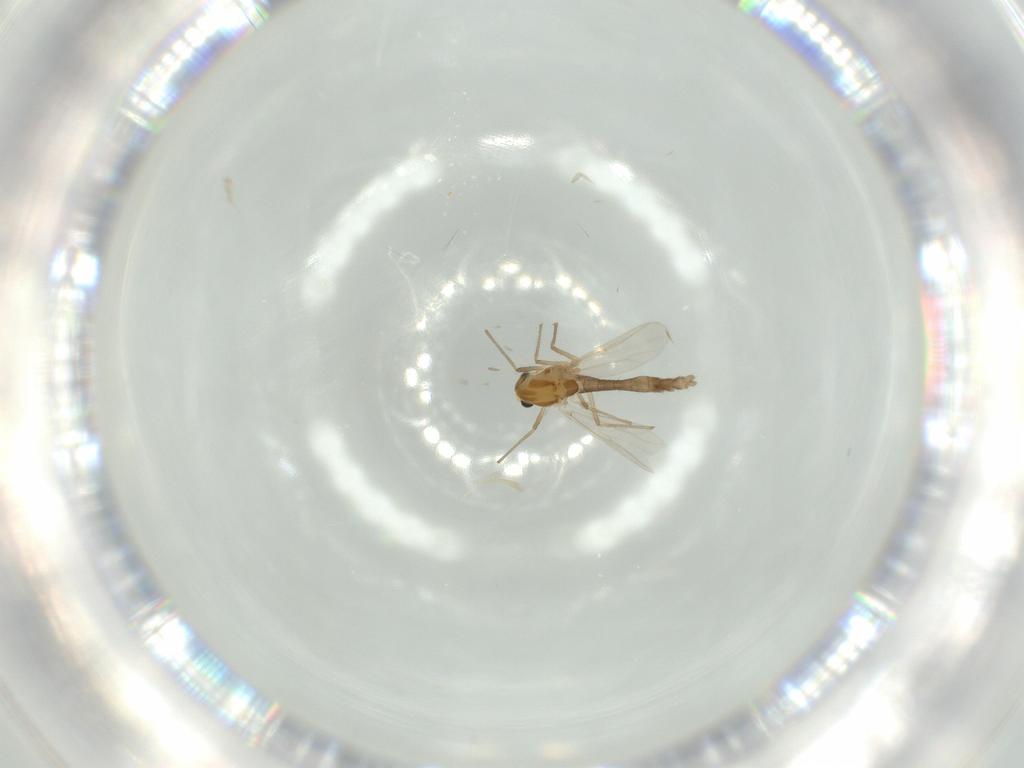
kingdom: Animalia
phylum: Arthropoda
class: Insecta
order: Diptera
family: Chironomidae
